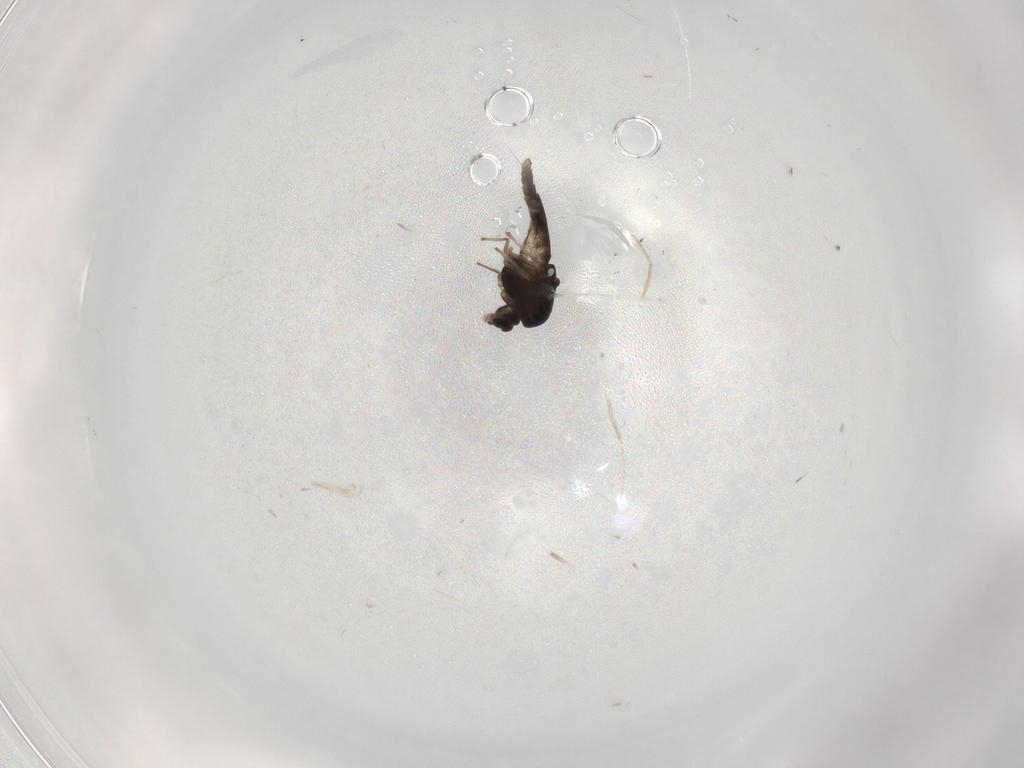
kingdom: Animalia
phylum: Arthropoda
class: Insecta
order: Diptera
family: Chironomidae
